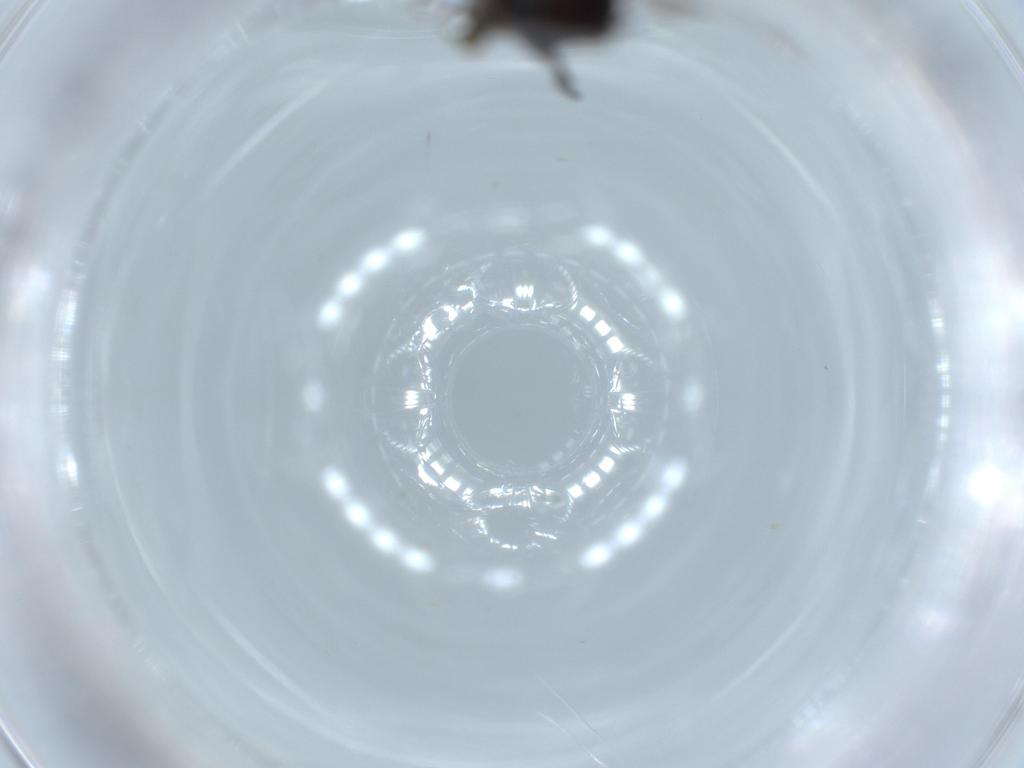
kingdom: Animalia
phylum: Arthropoda
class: Insecta
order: Diptera
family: Phoridae
